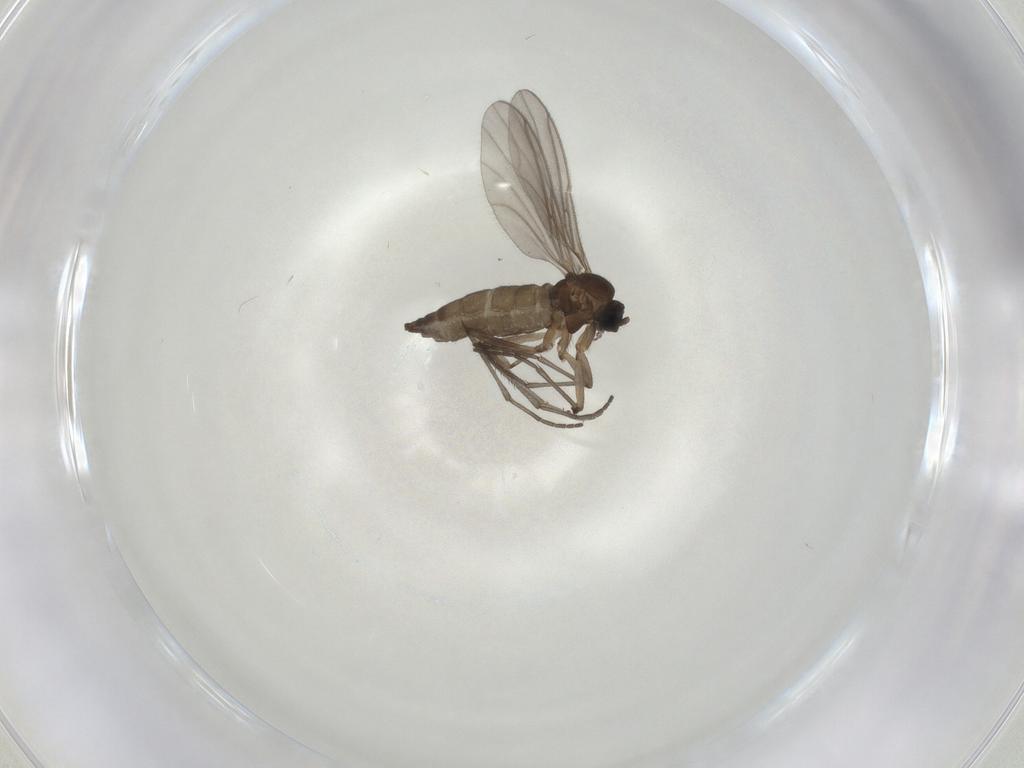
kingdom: Animalia
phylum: Arthropoda
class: Insecta
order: Diptera
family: Sciaridae
